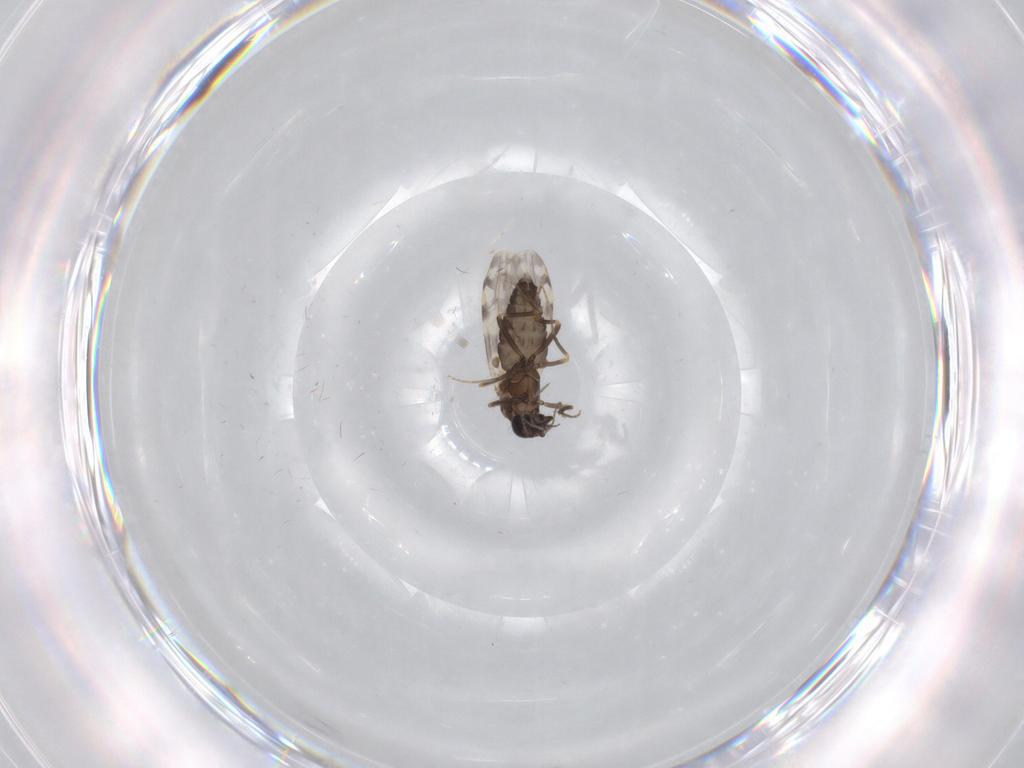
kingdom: Animalia
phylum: Arthropoda
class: Insecta
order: Diptera
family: Ceratopogonidae
